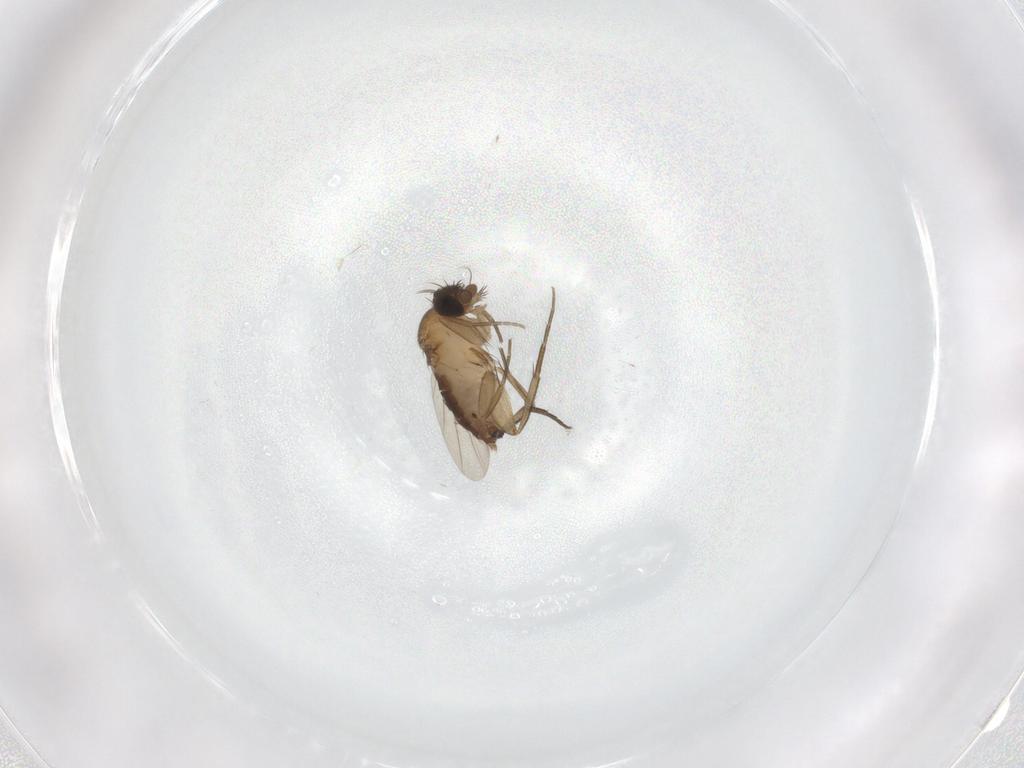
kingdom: Animalia
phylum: Arthropoda
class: Insecta
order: Diptera
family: Phoridae
